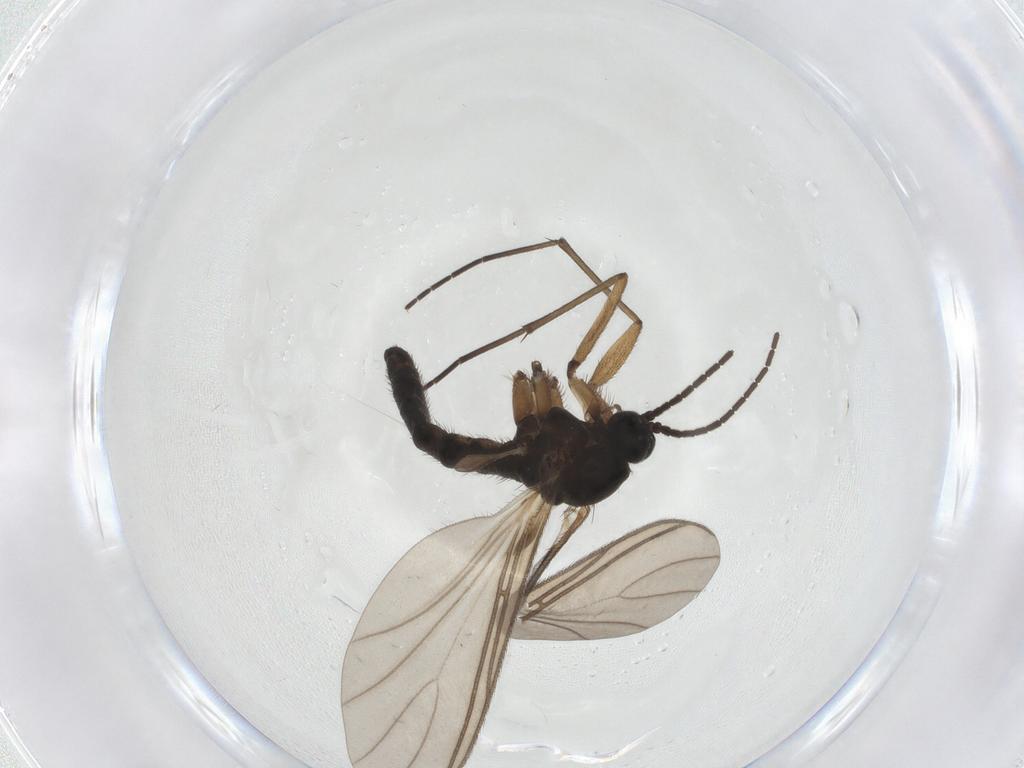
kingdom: Animalia
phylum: Arthropoda
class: Insecta
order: Diptera
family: Sciaridae
